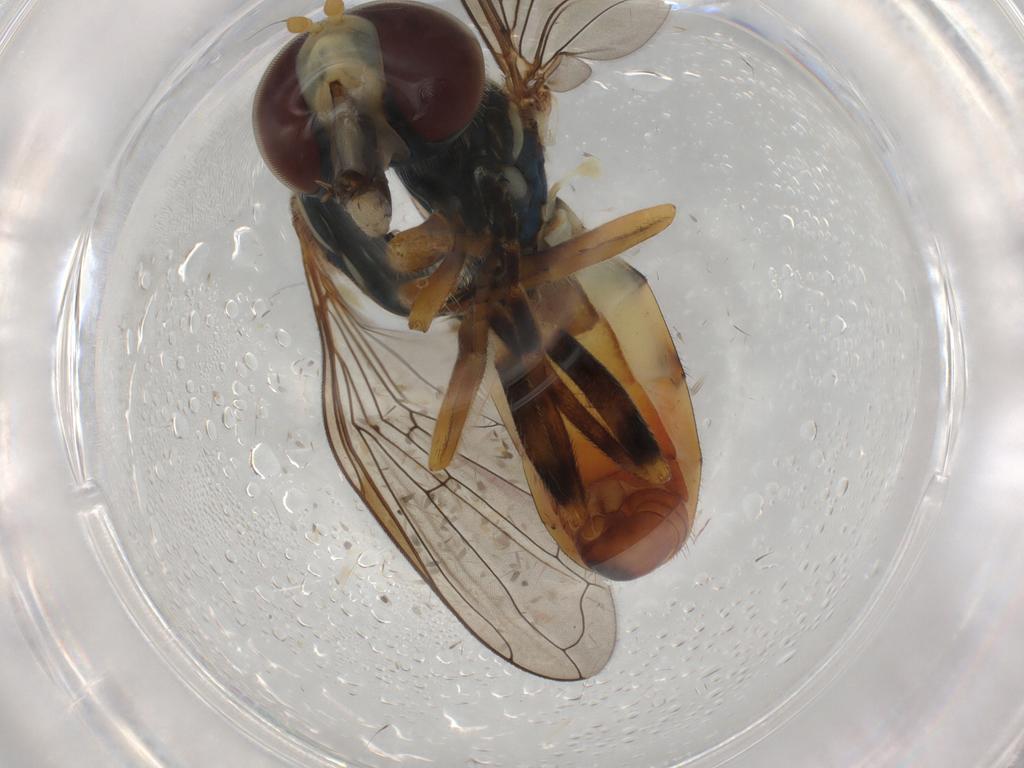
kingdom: Animalia
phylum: Arthropoda
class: Insecta
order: Diptera
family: Syrphidae
